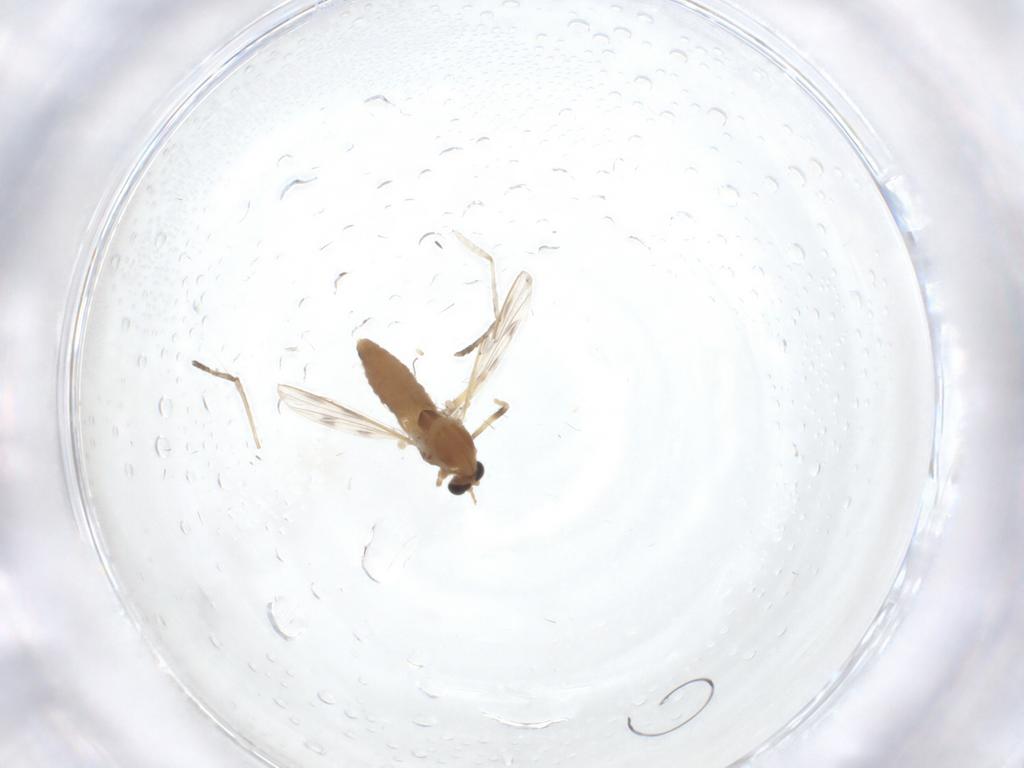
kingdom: Animalia
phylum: Arthropoda
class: Insecta
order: Diptera
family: Chironomidae
